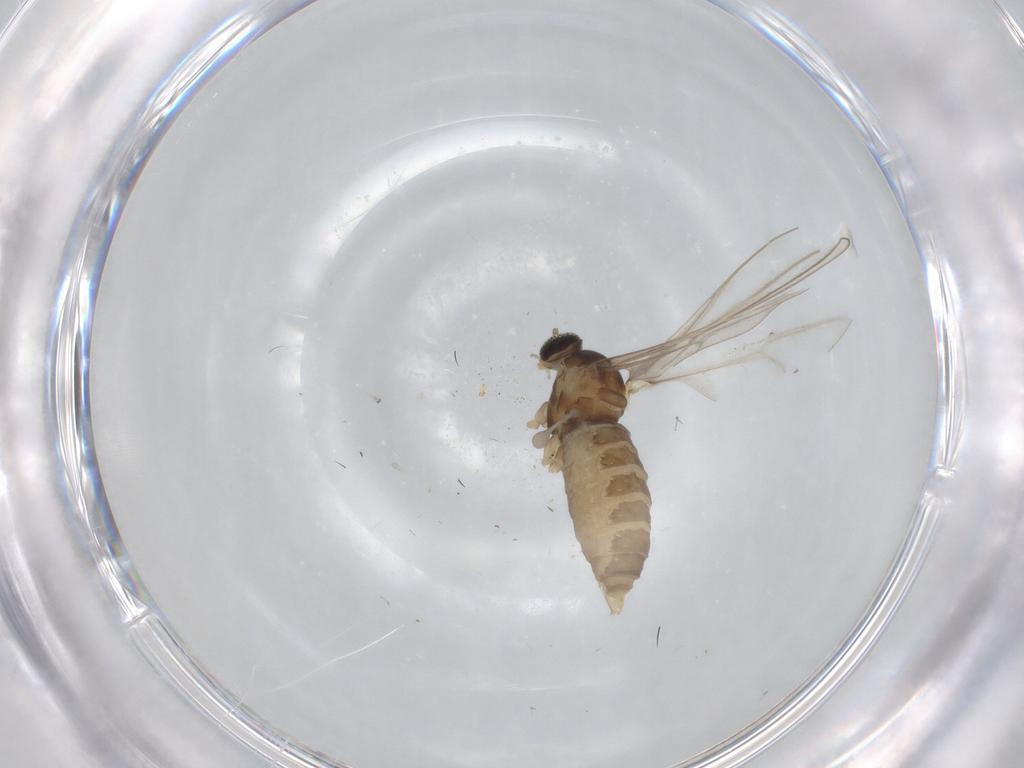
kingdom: Animalia
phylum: Arthropoda
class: Insecta
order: Diptera
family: Cecidomyiidae
